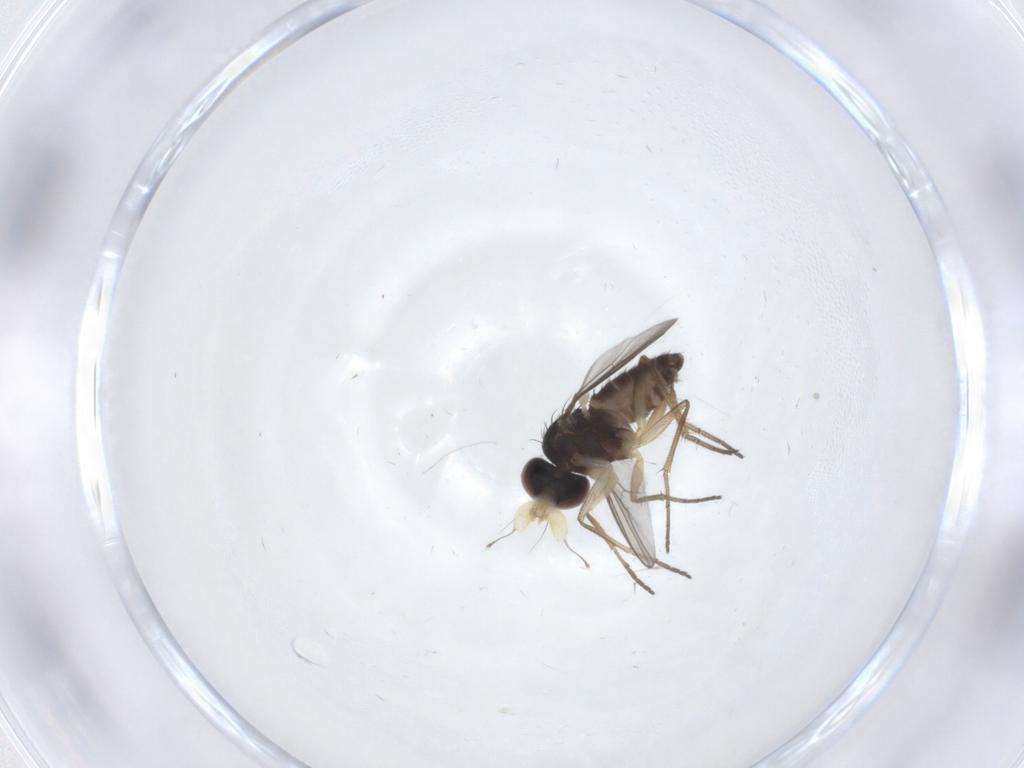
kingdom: Animalia
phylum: Arthropoda
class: Insecta
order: Diptera
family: Dolichopodidae
